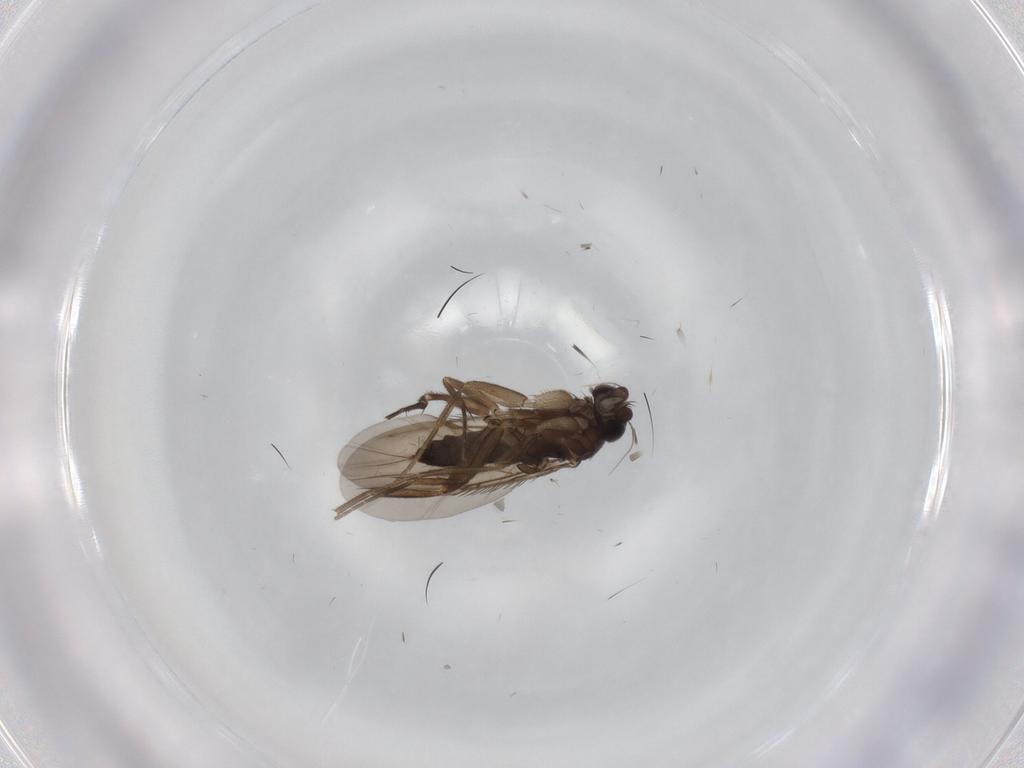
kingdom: Animalia
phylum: Arthropoda
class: Insecta
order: Diptera
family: Phoridae
